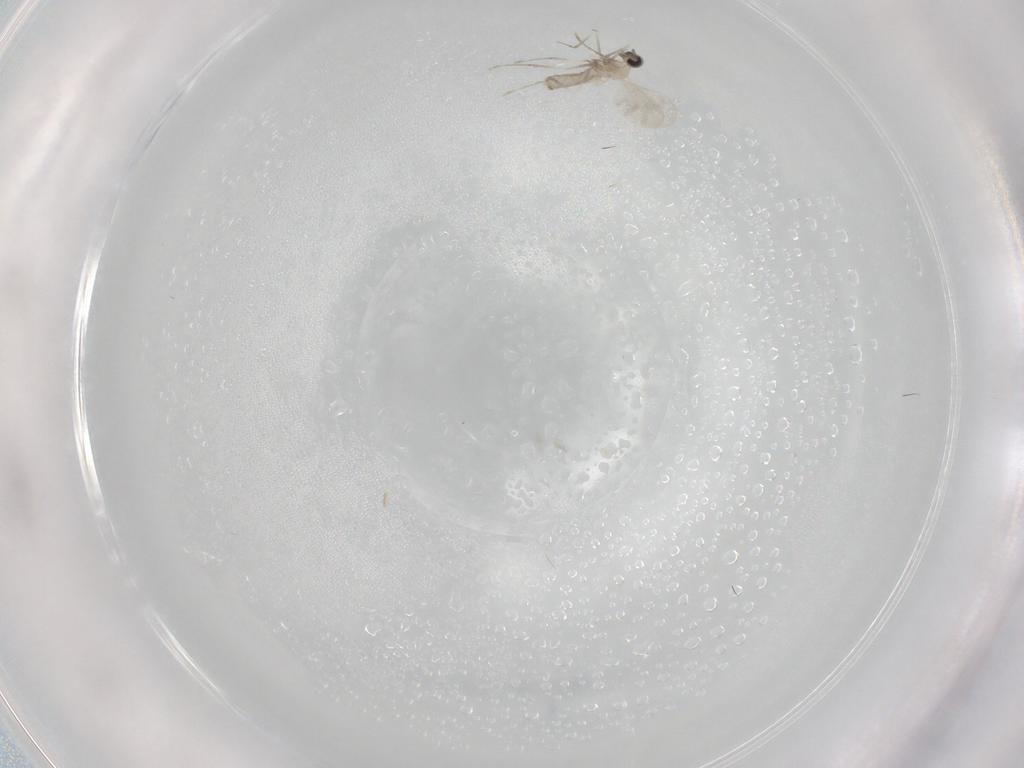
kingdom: Animalia
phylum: Arthropoda
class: Insecta
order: Diptera
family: Cecidomyiidae
